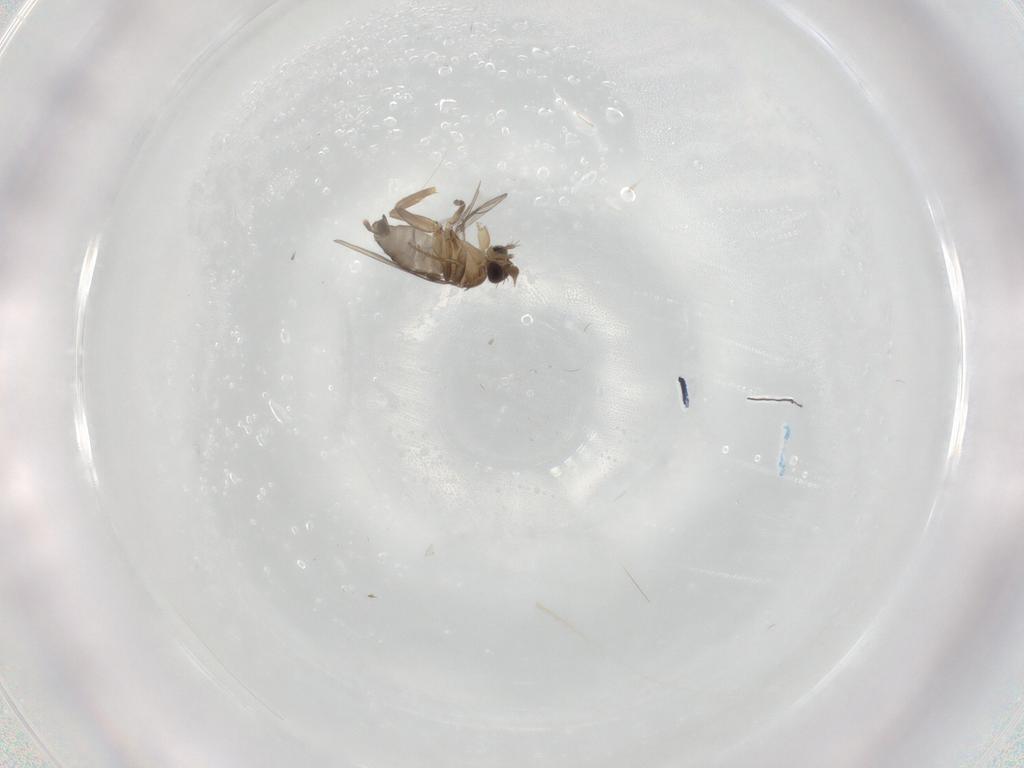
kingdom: Animalia
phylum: Arthropoda
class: Insecta
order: Diptera
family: Phoridae
